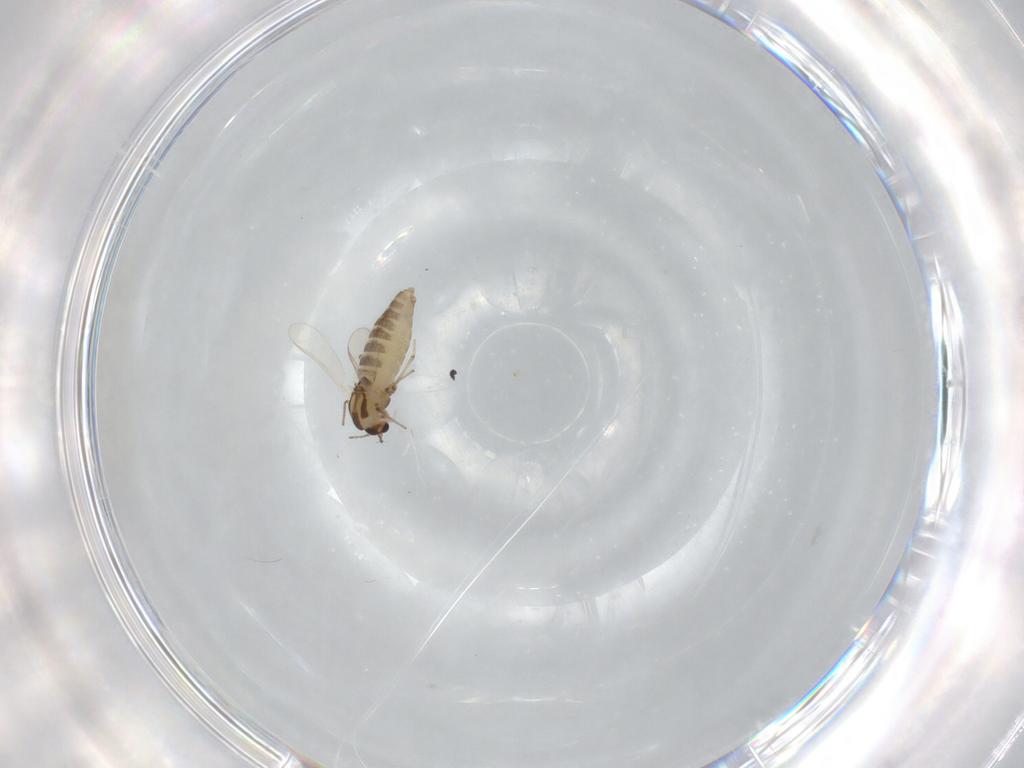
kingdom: Animalia
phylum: Arthropoda
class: Insecta
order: Diptera
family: Chironomidae
